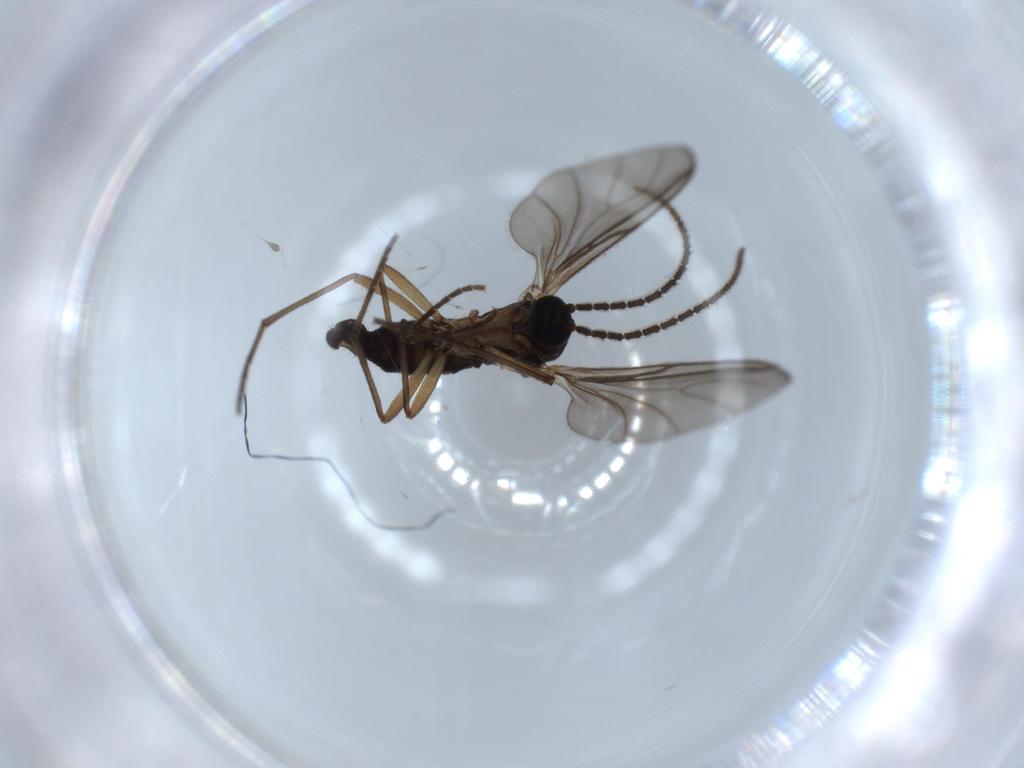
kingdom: Animalia
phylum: Arthropoda
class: Insecta
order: Diptera
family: Sciaridae
